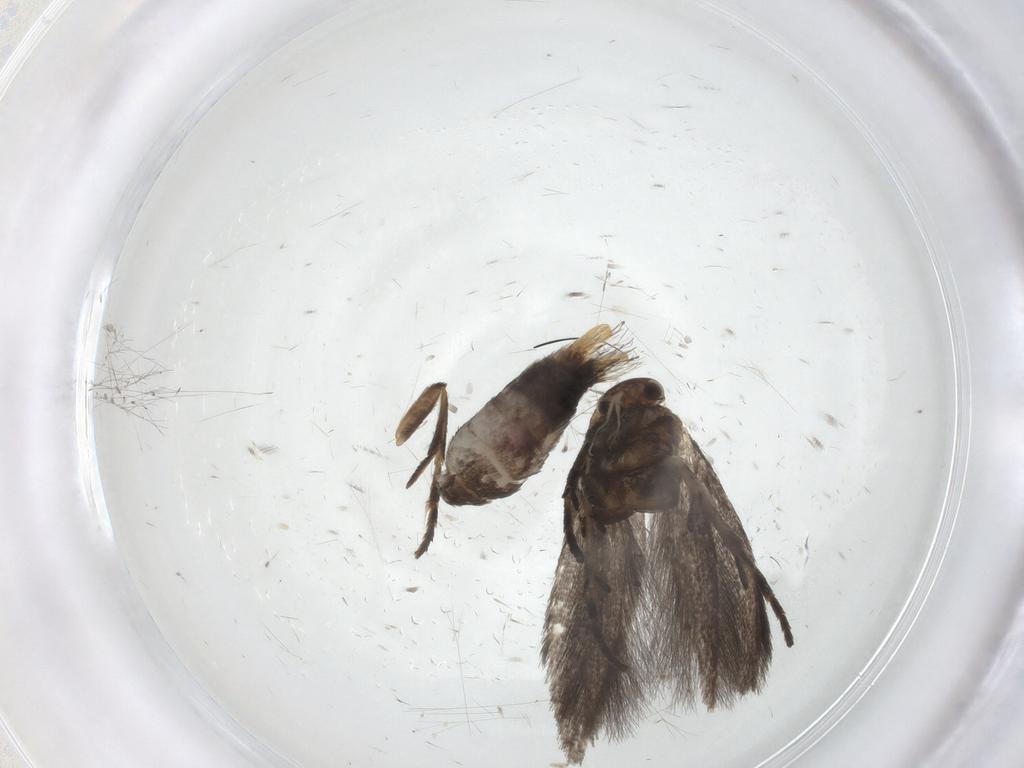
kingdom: Animalia
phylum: Arthropoda
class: Insecta
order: Lepidoptera
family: Elachistidae
